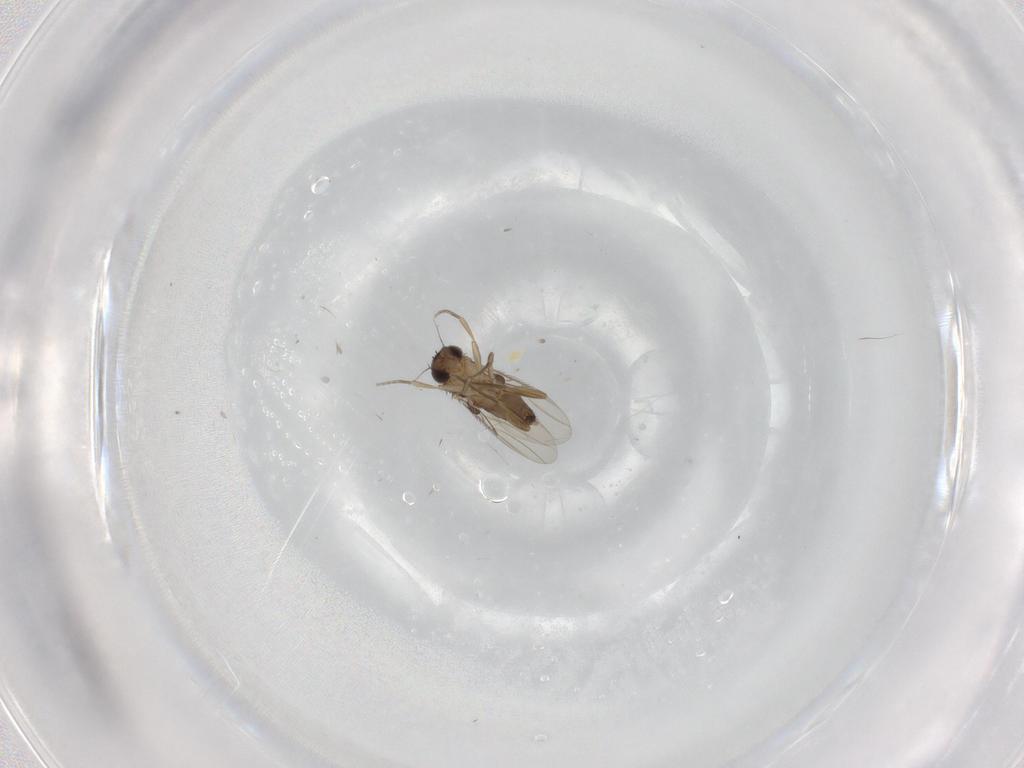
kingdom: Animalia
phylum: Arthropoda
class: Insecta
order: Diptera
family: Phoridae
